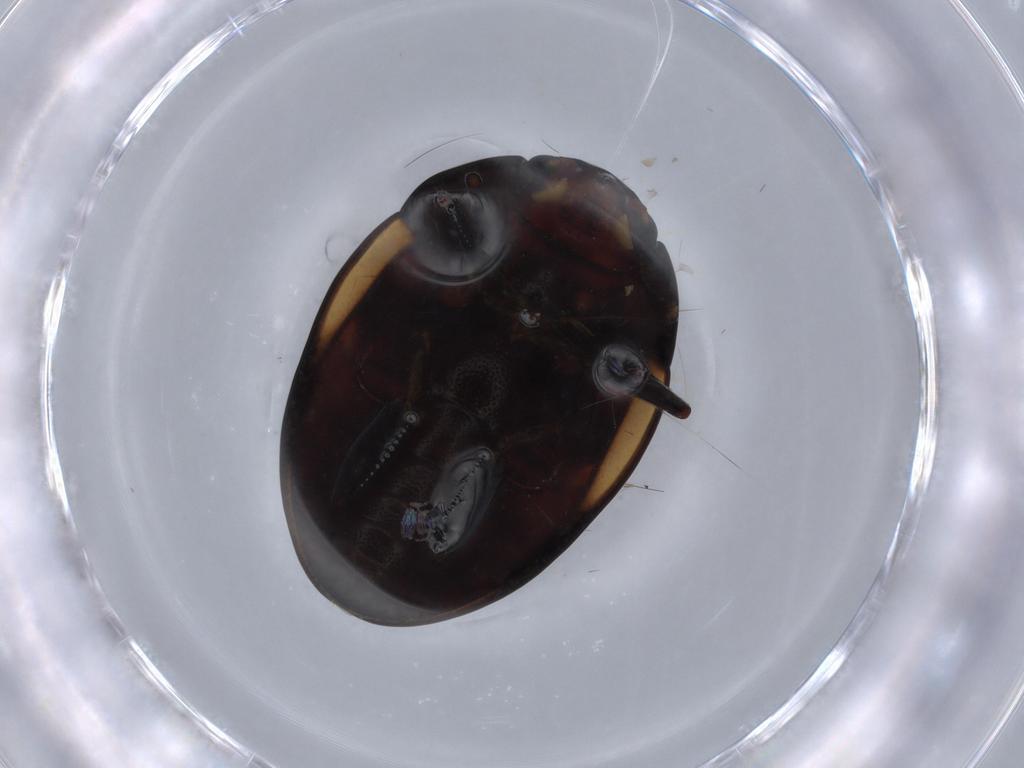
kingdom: Animalia
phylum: Arthropoda
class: Insecta
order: Coleoptera
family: Erotylidae
